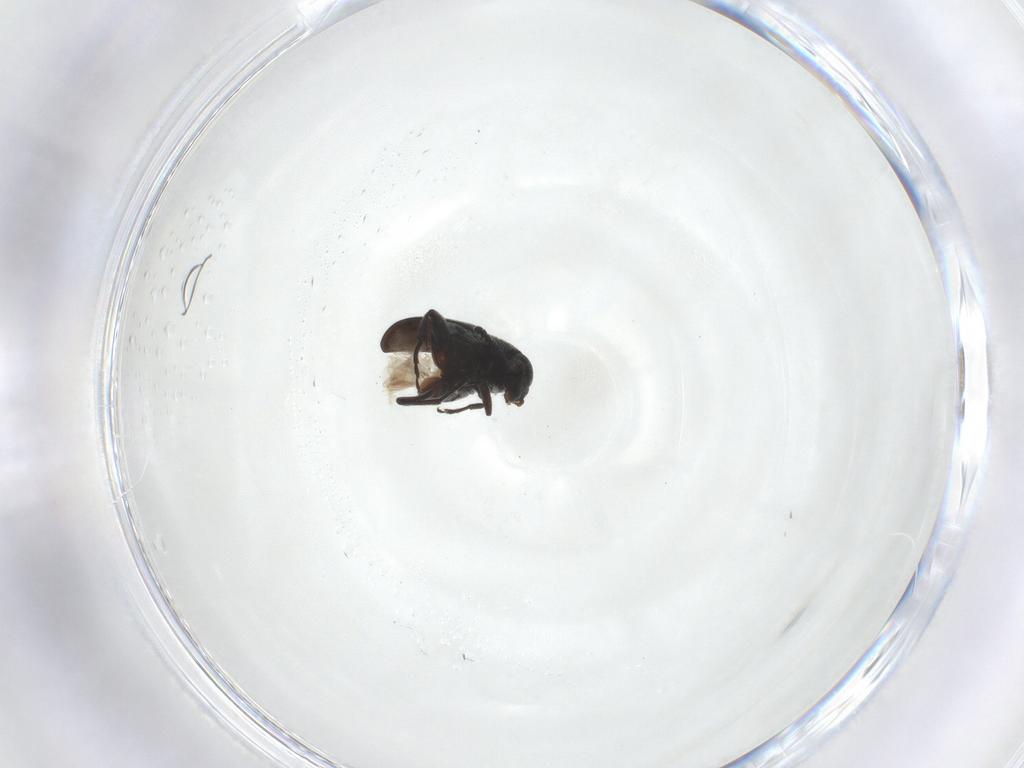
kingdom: Animalia
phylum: Arthropoda
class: Insecta
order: Coleoptera
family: Chrysomelidae
